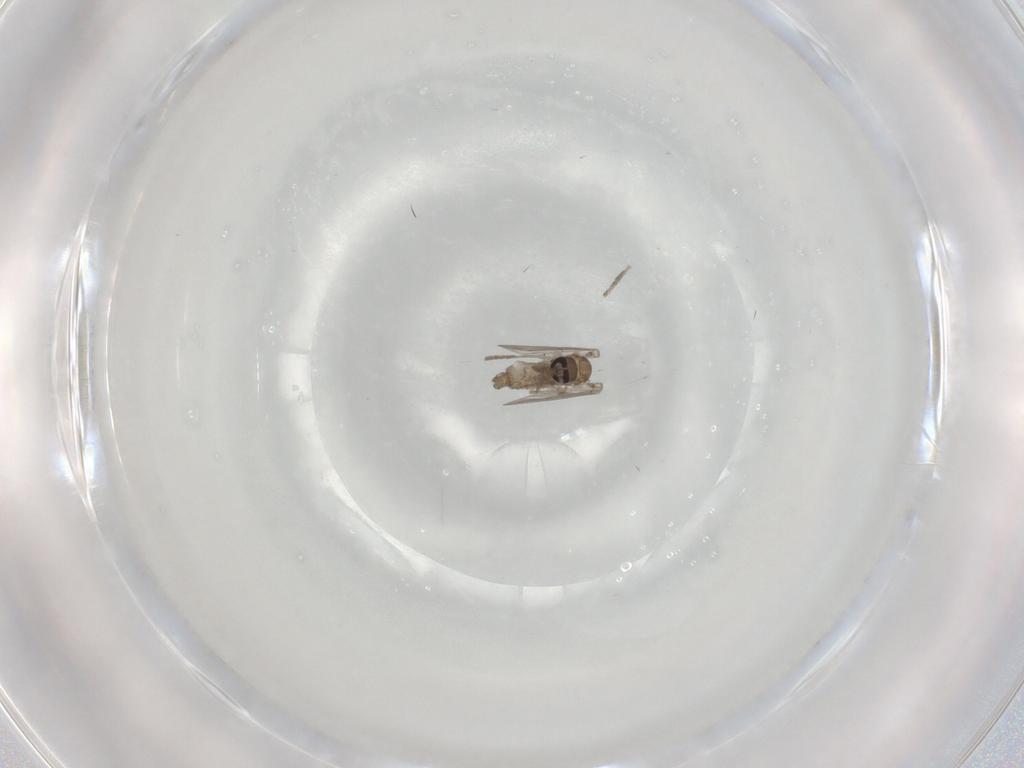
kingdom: Animalia
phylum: Arthropoda
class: Insecta
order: Diptera
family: Psychodidae
